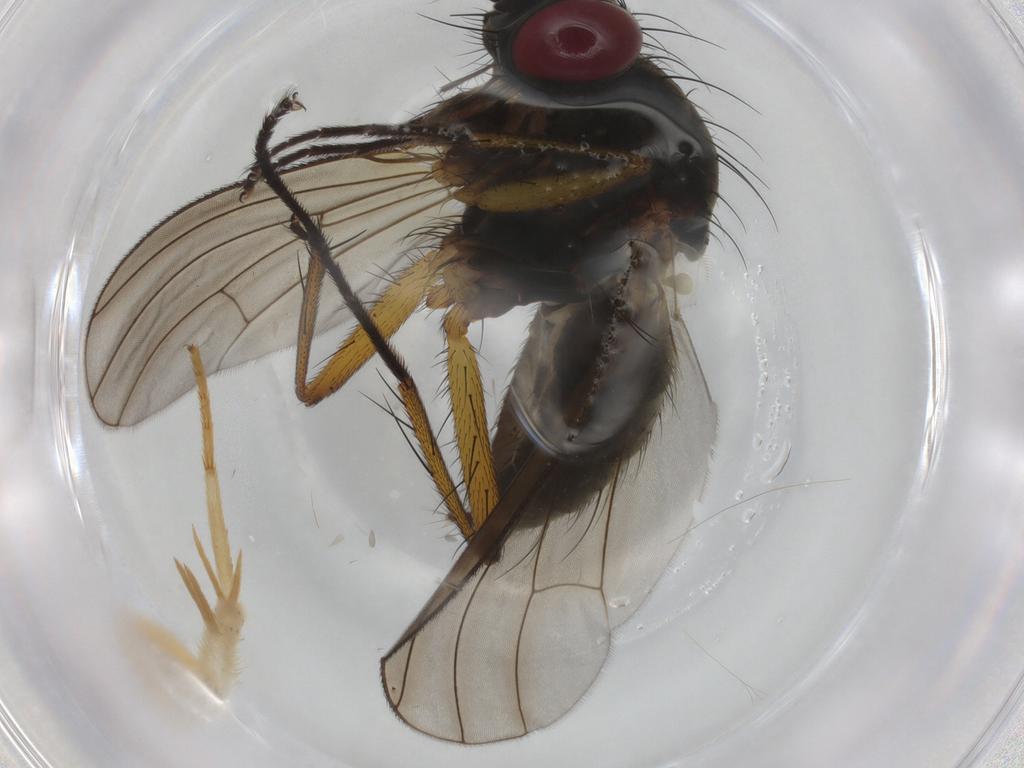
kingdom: Animalia
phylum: Arthropoda
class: Insecta
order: Diptera
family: Muscidae
